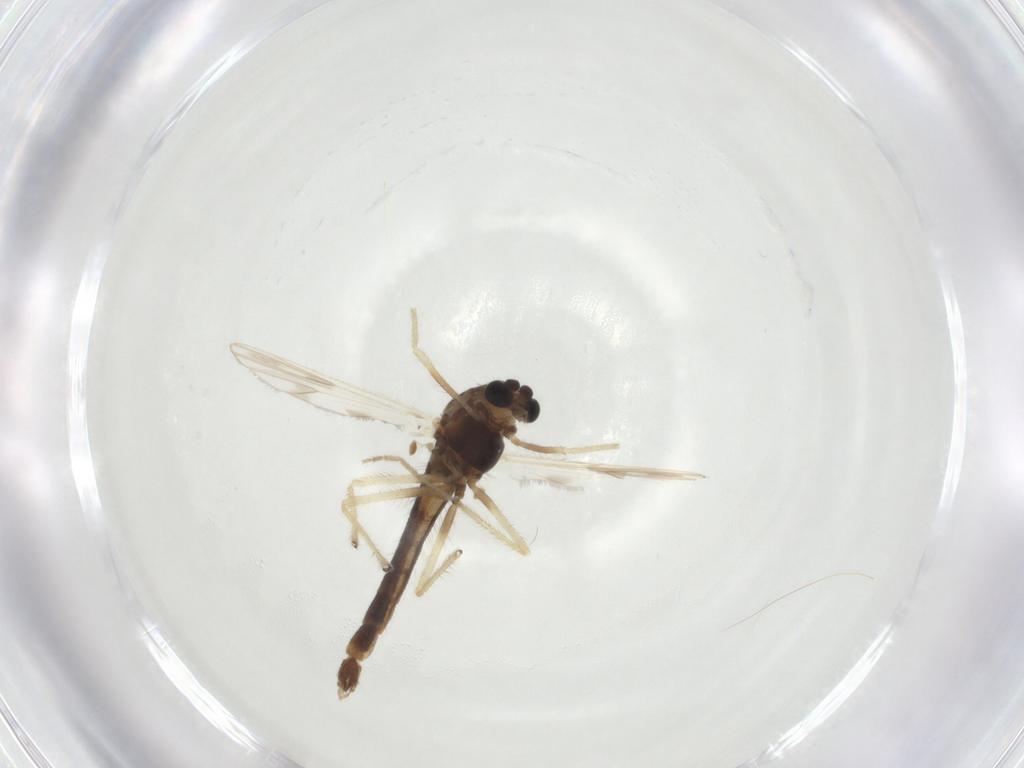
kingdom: Animalia
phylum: Arthropoda
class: Insecta
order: Diptera
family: Chironomidae
